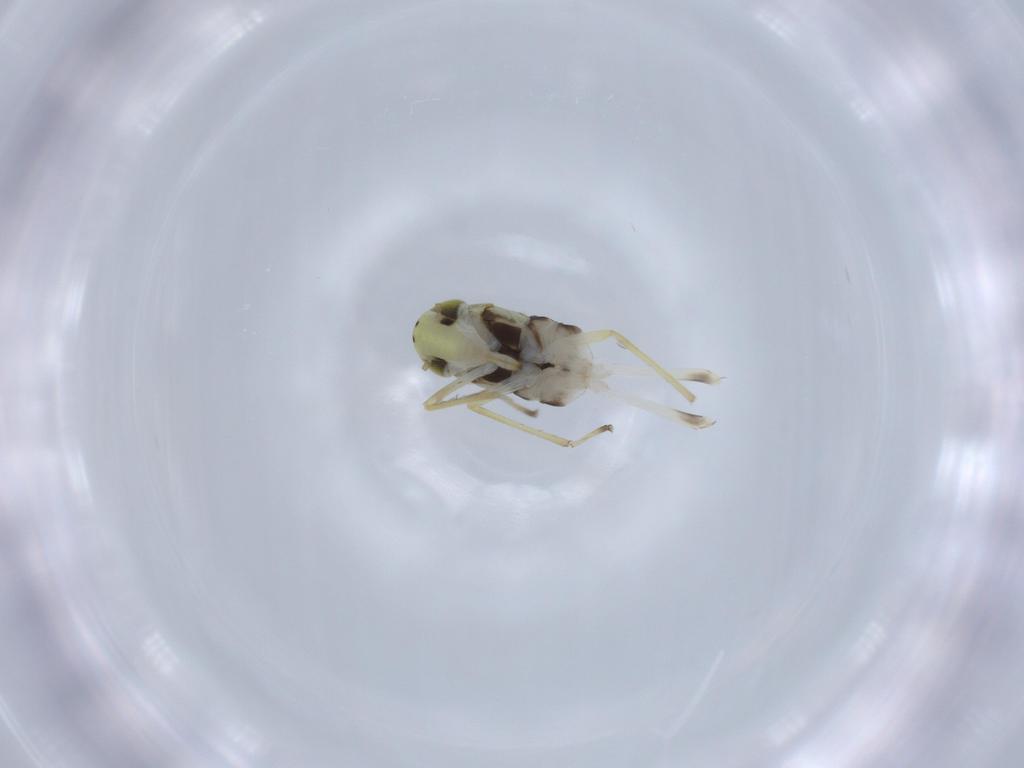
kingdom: Animalia
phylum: Arthropoda
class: Insecta
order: Hemiptera
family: Cicadellidae
